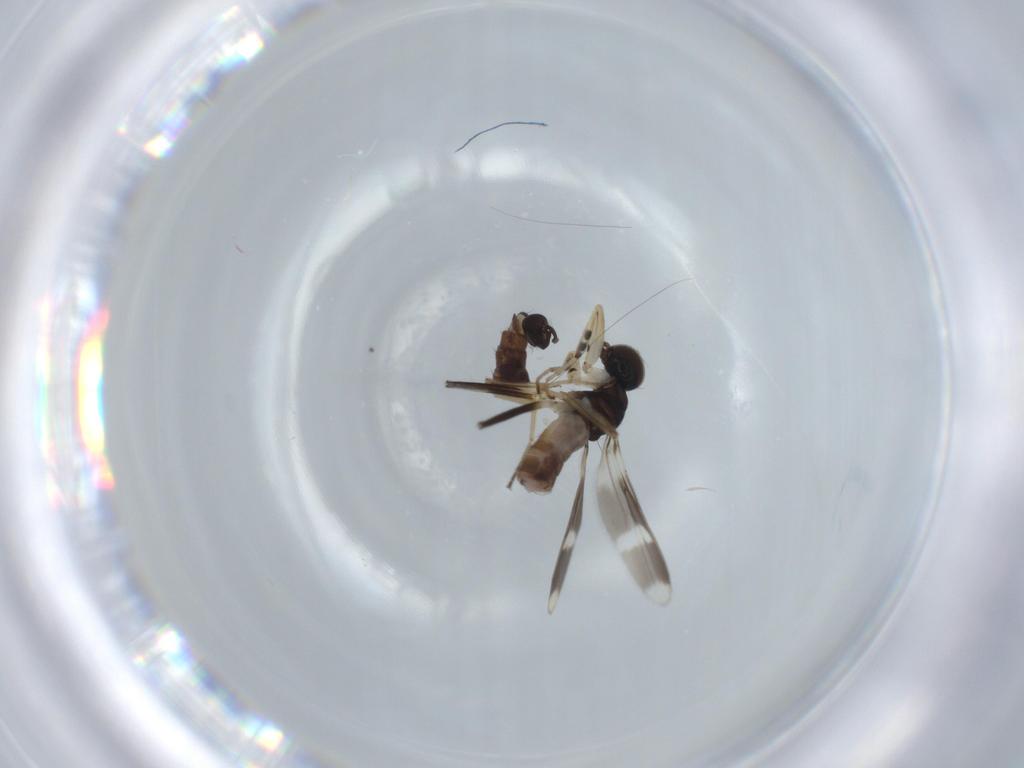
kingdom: Animalia
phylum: Arthropoda
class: Insecta
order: Diptera
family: Hybotidae
